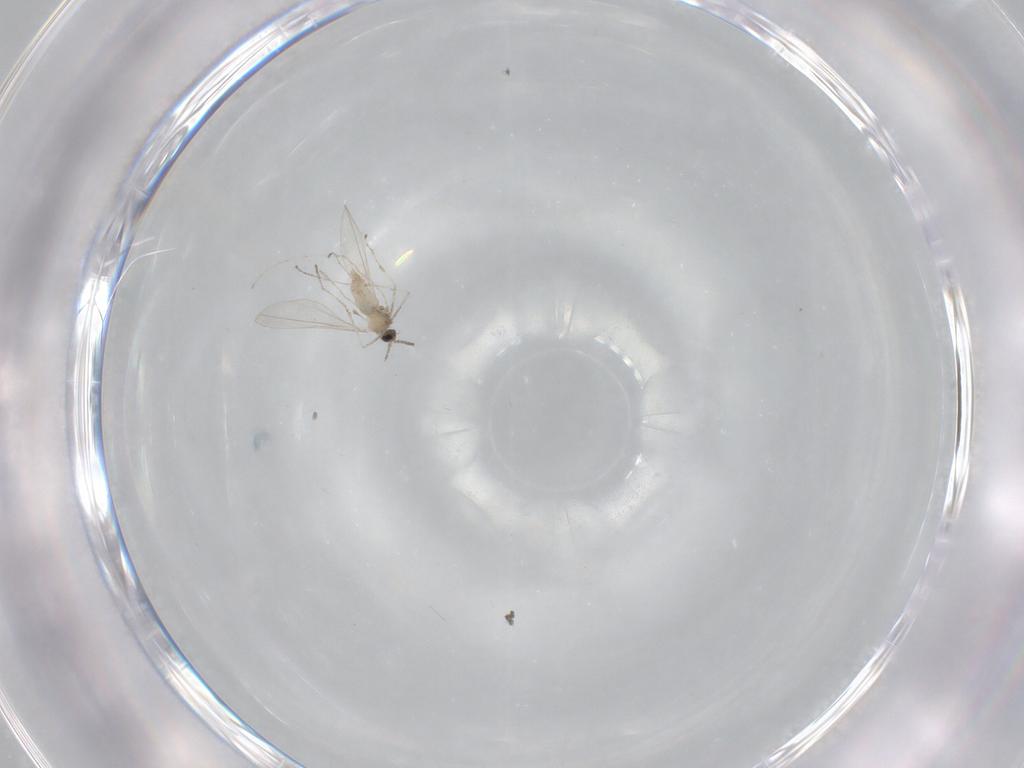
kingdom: Animalia
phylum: Arthropoda
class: Insecta
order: Diptera
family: Cecidomyiidae
